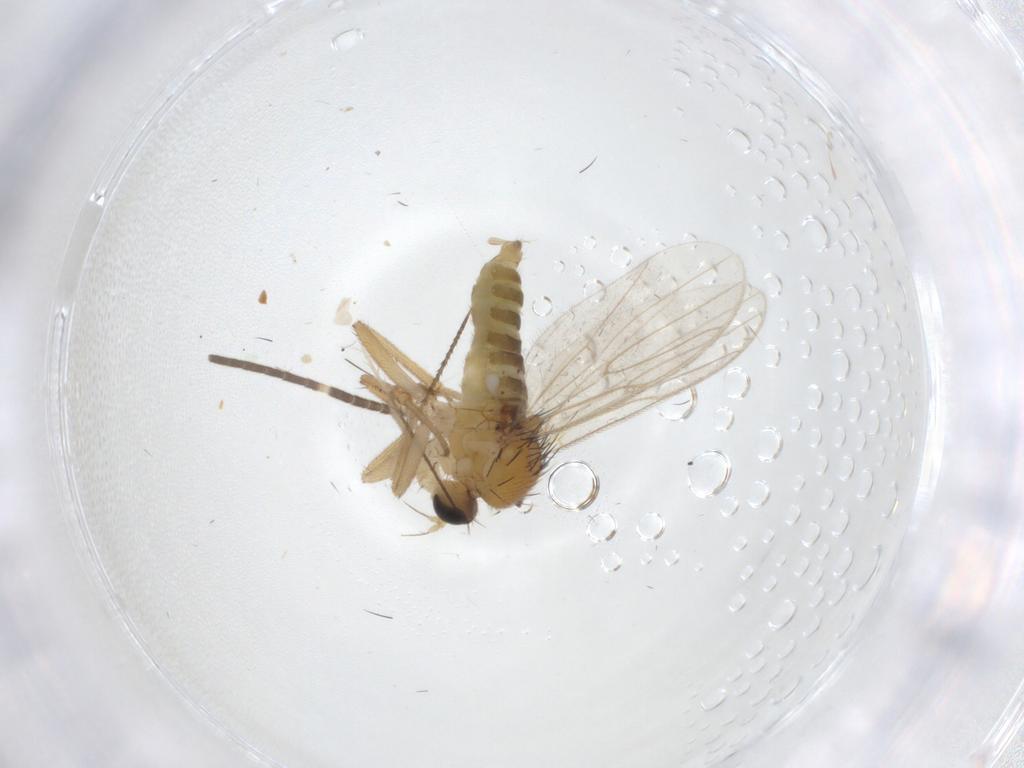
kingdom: Animalia
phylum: Arthropoda
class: Insecta
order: Diptera
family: Hybotidae
